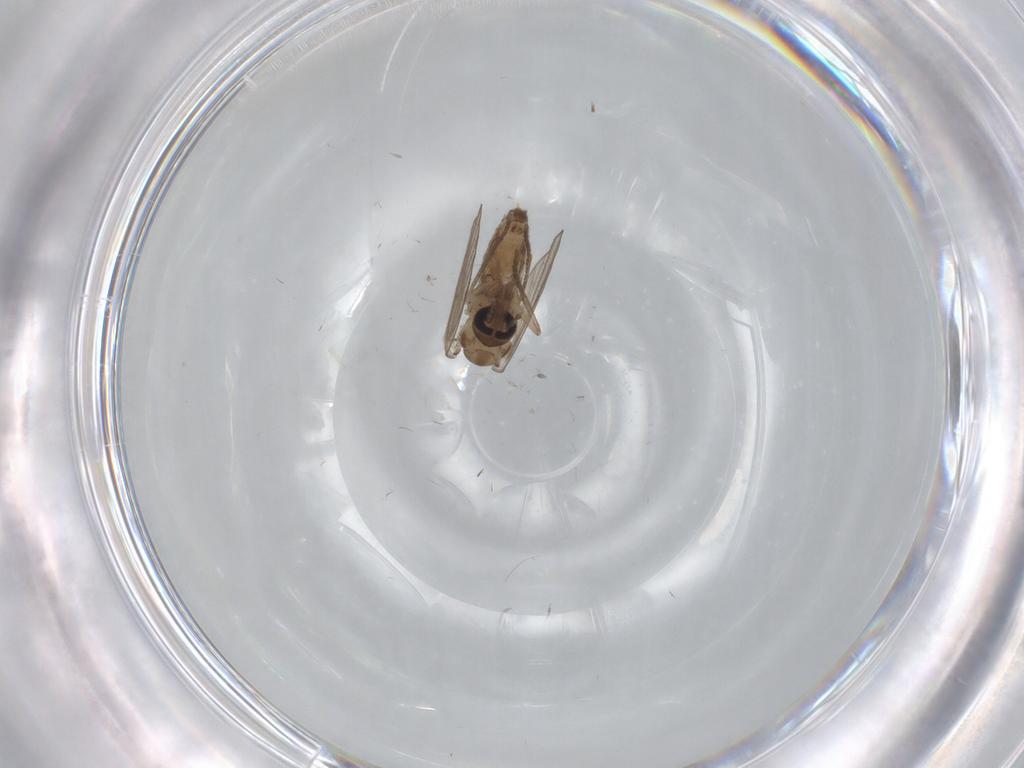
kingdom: Animalia
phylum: Arthropoda
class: Insecta
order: Diptera
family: Psychodidae
